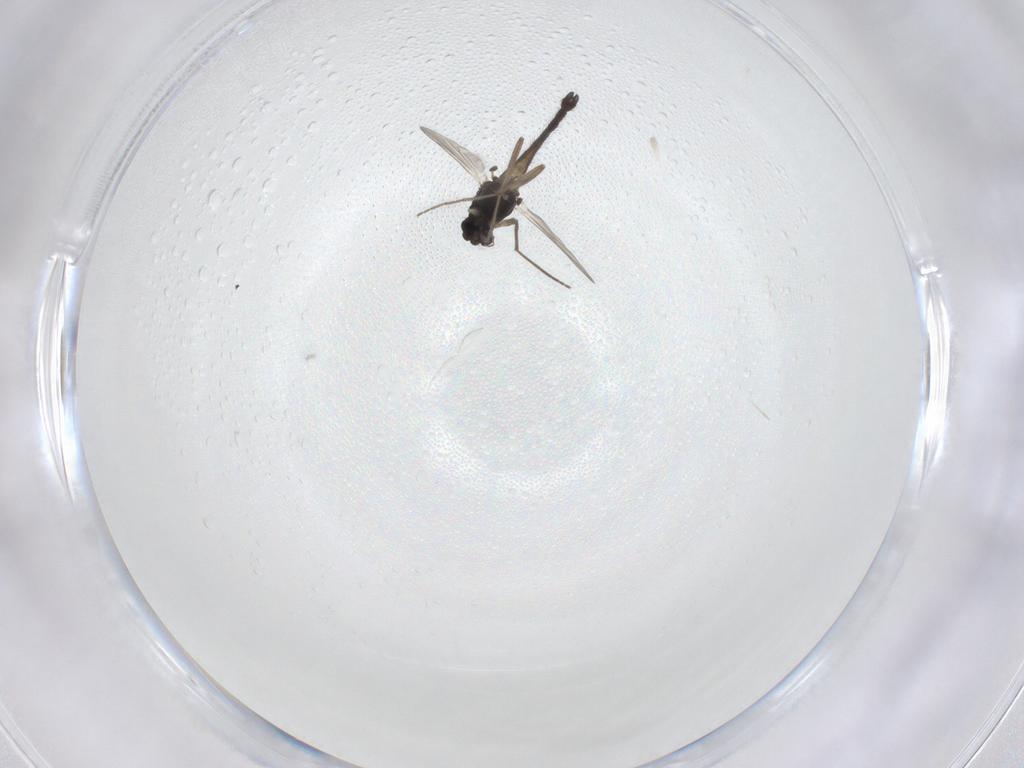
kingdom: Animalia
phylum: Arthropoda
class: Insecta
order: Diptera
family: Chironomidae
